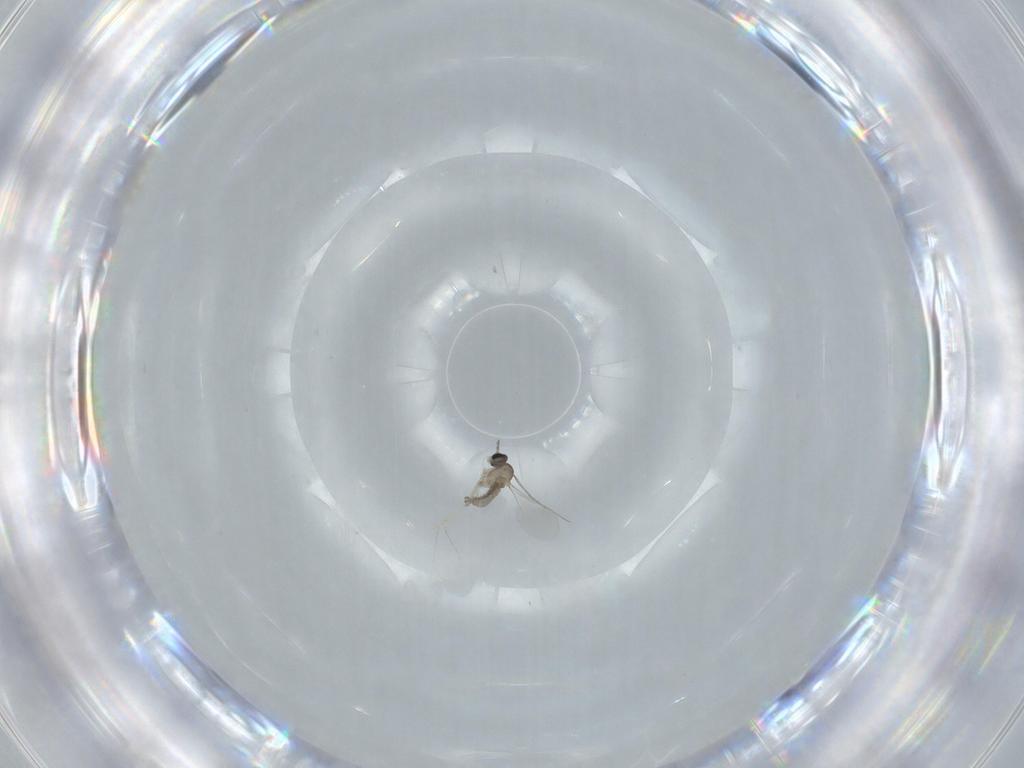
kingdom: Animalia
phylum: Arthropoda
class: Insecta
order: Diptera
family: Cecidomyiidae
